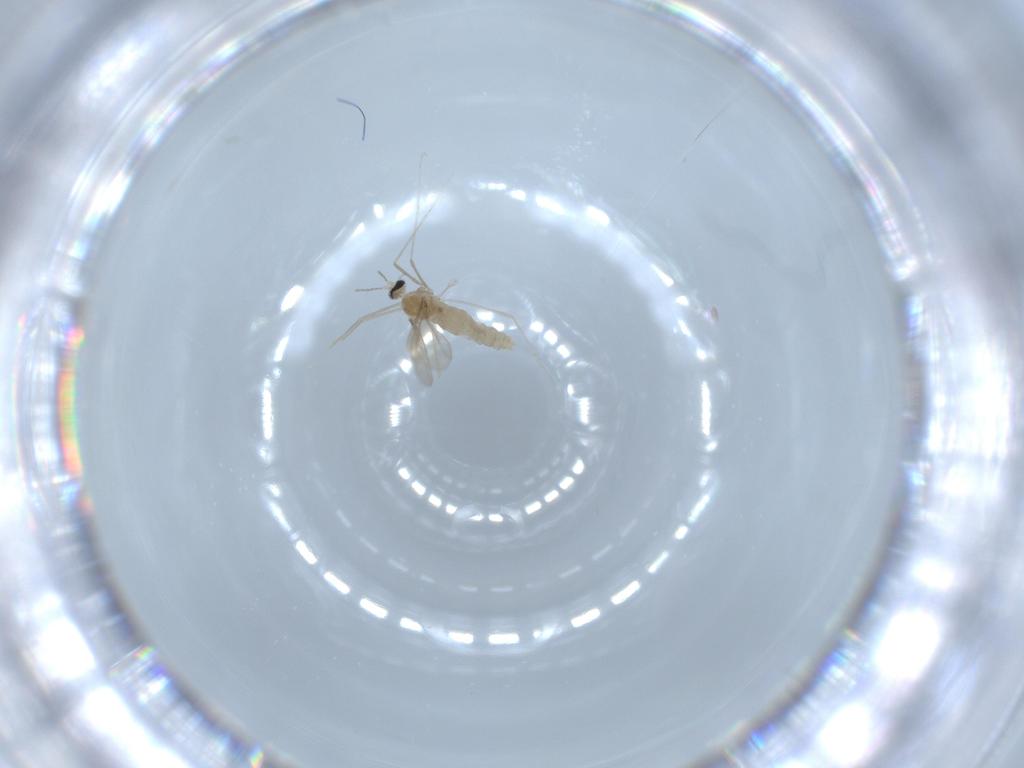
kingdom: Animalia
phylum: Arthropoda
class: Insecta
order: Diptera
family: Cecidomyiidae
